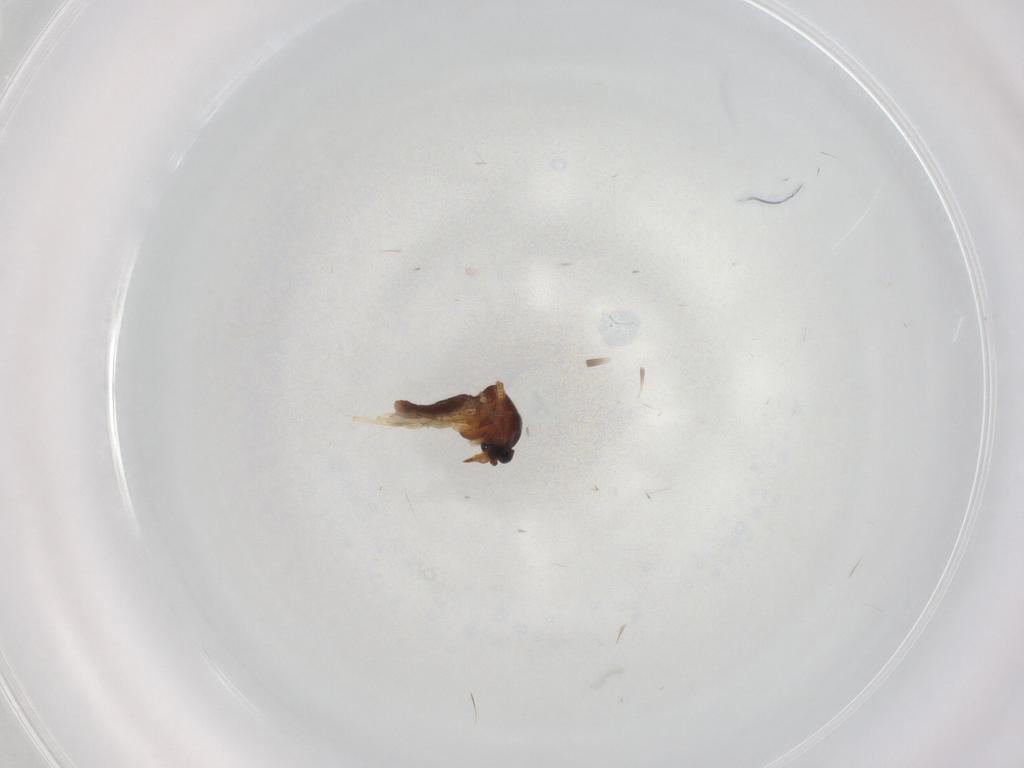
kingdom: Animalia
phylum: Arthropoda
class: Insecta
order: Diptera
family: Ceratopogonidae
